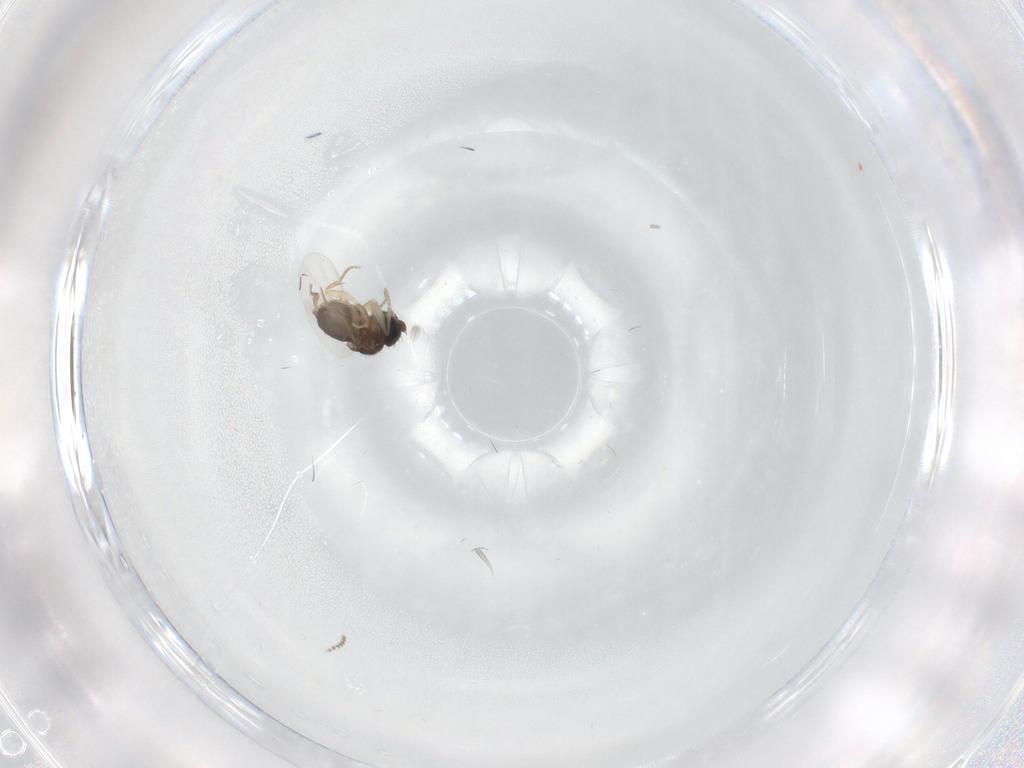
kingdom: Animalia
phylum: Arthropoda
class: Insecta
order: Diptera
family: Phoridae
